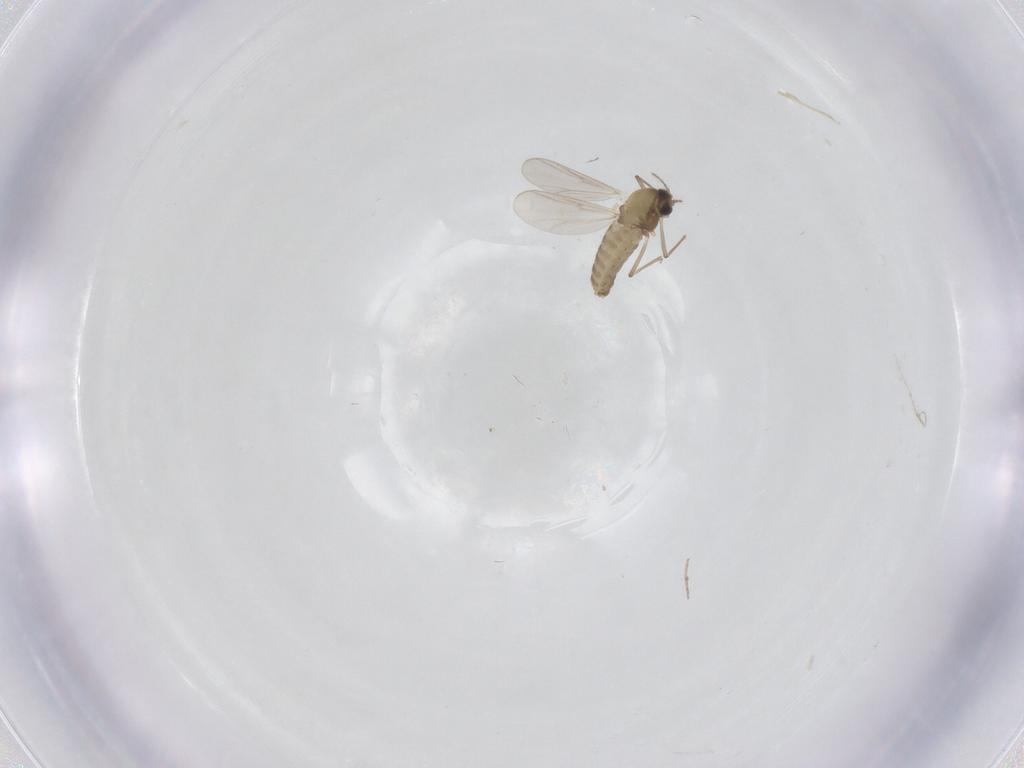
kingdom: Animalia
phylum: Arthropoda
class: Insecta
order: Diptera
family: Chironomidae
